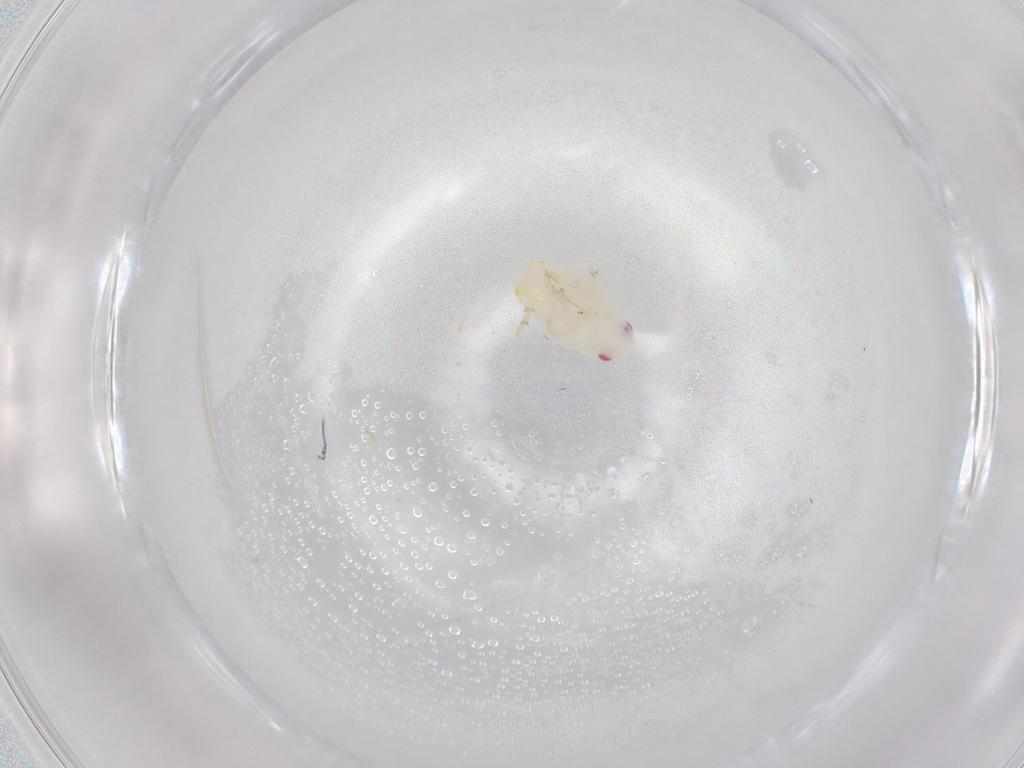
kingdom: Animalia
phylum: Arthropoda
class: Insecta
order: Hemiptera
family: Flatidae
